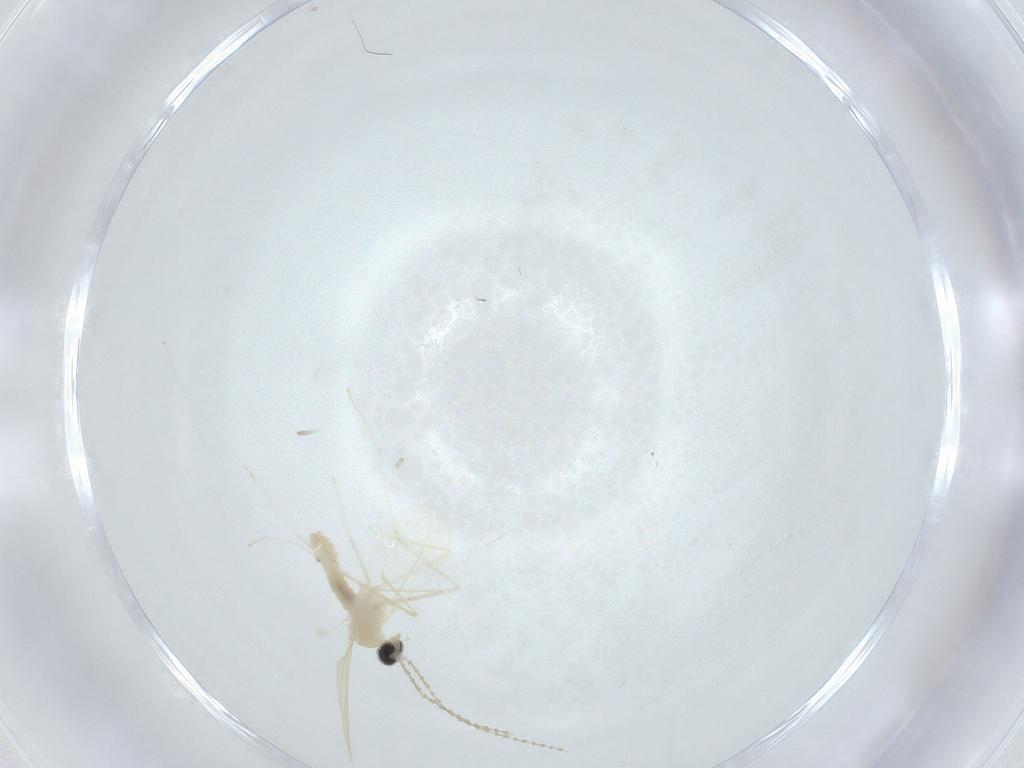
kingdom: Animalia
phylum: Arthropoda
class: Insecta
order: Diptera
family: Cecidomyiidae
